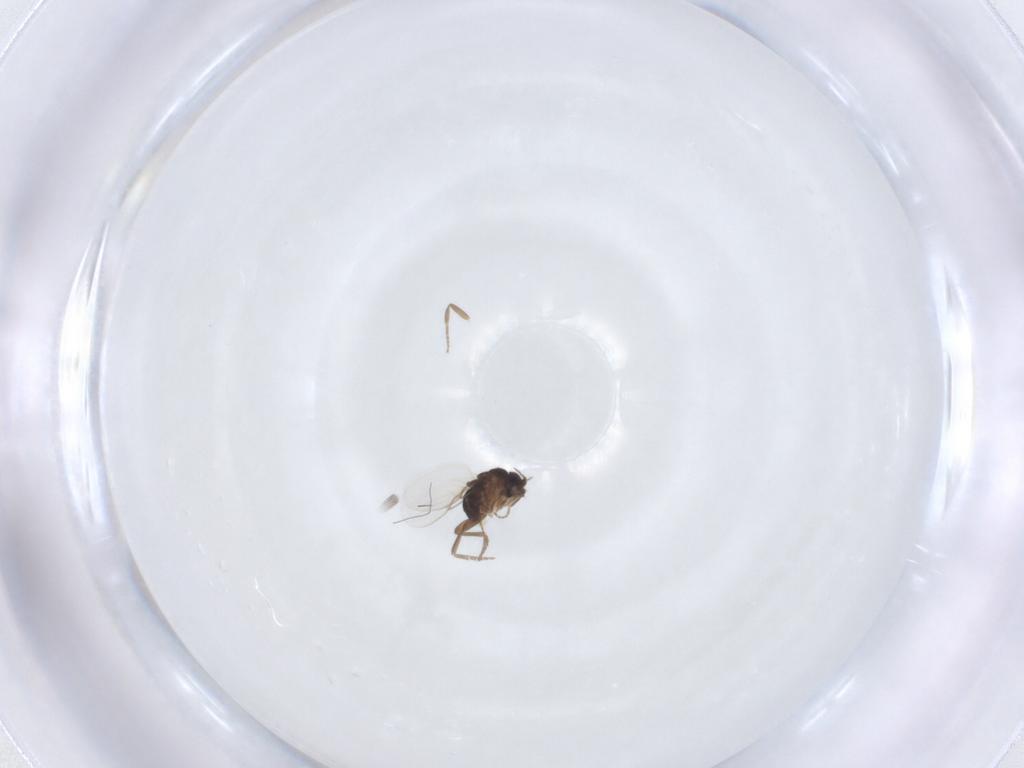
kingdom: Animalia
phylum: Arthropoda
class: Insecta
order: Diptera
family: Muscidae
